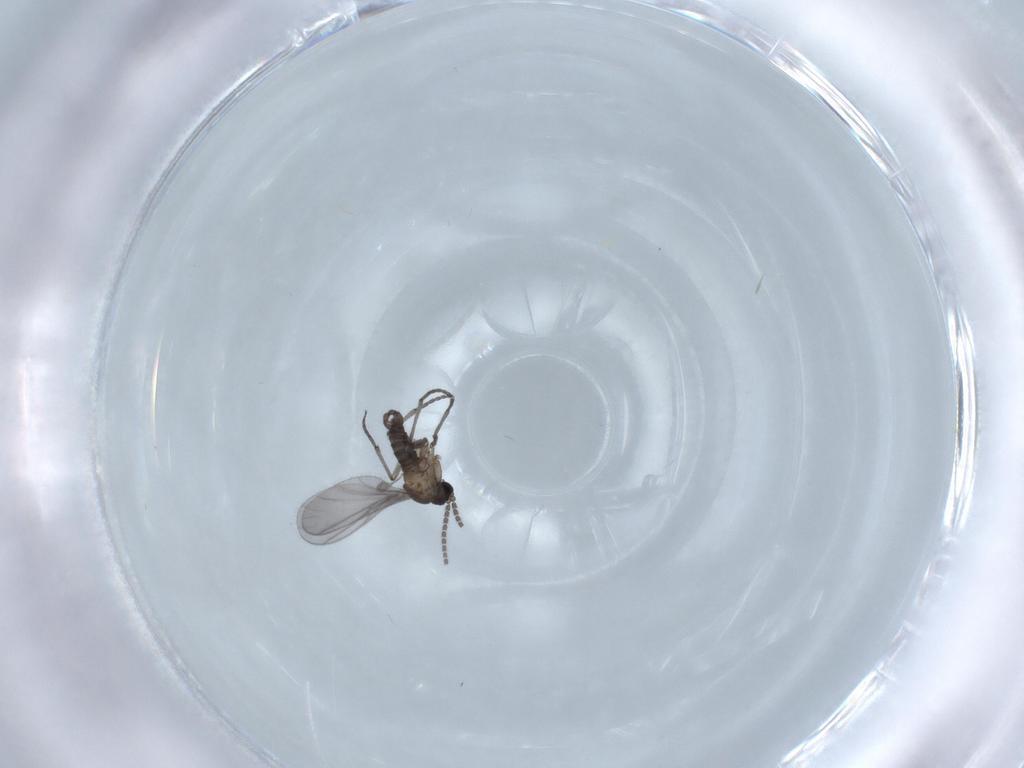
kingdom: Animalia
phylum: Arthropoda
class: Insecta
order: Diptera
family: Sciaridae
